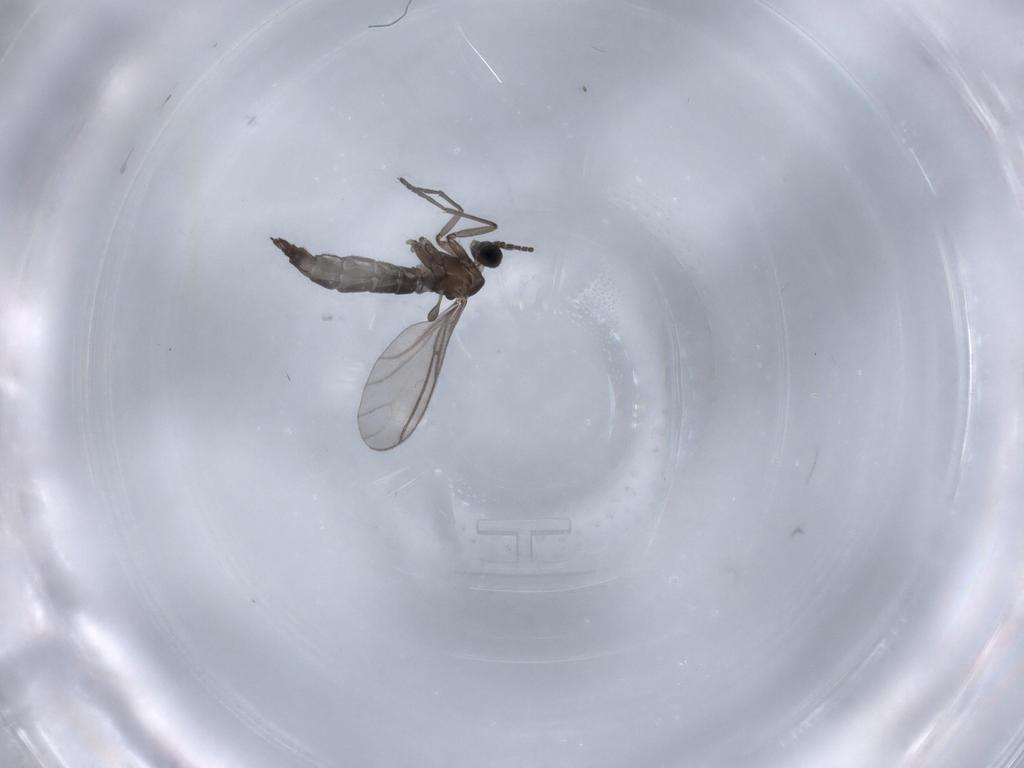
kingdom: Animalia
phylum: Arthropoda
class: Insecta
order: Diptera
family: Sciaridae
